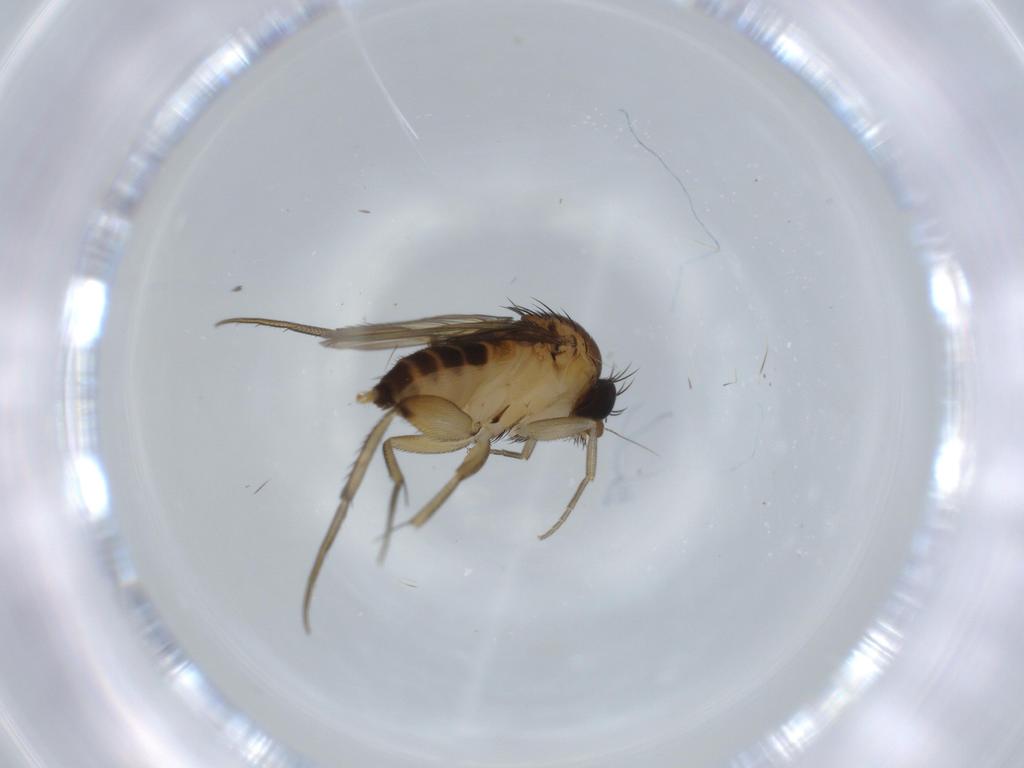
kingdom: Animalia
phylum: Arthropoda
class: Insecta
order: Diptera
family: Phoridae
